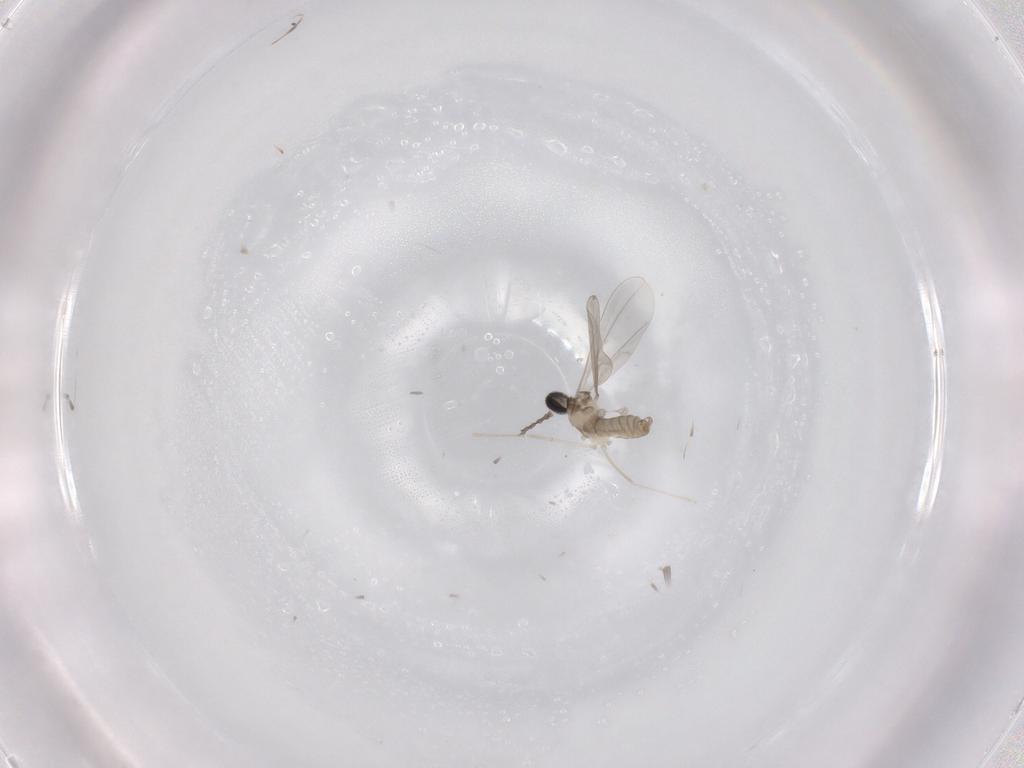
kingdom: Animalia
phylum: Arthropoda
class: Insecta
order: Diptera
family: Cecidomyiidae
